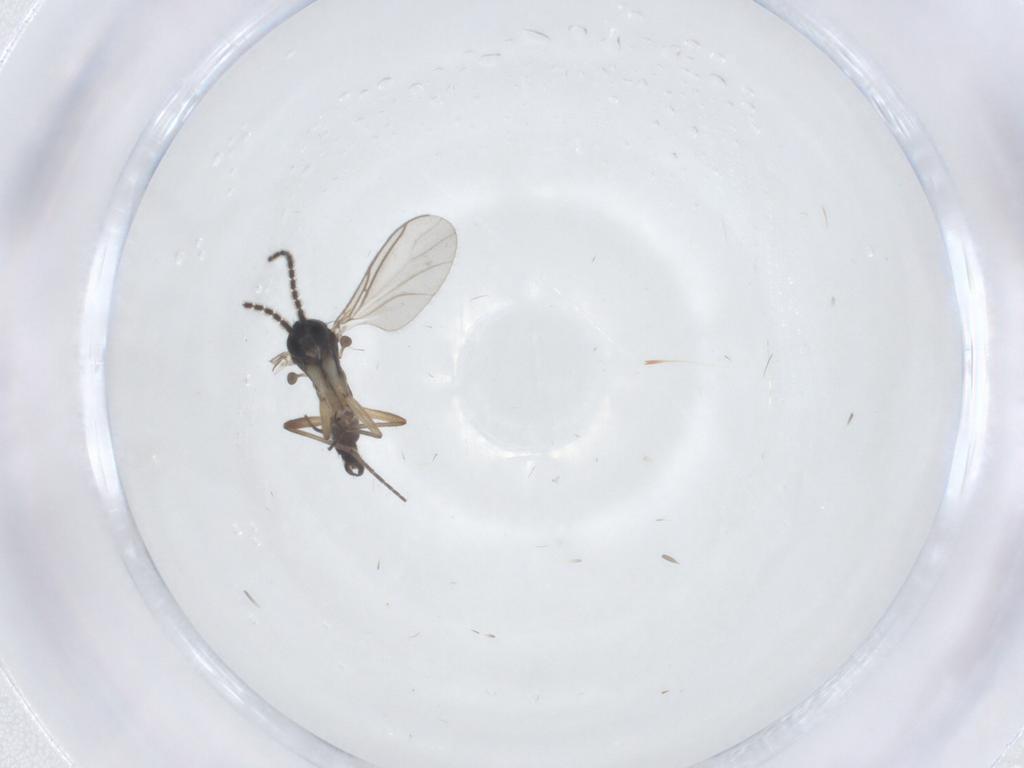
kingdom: Animalia
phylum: Arthropoda
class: Insecta
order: Diptera
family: Sciaridae
